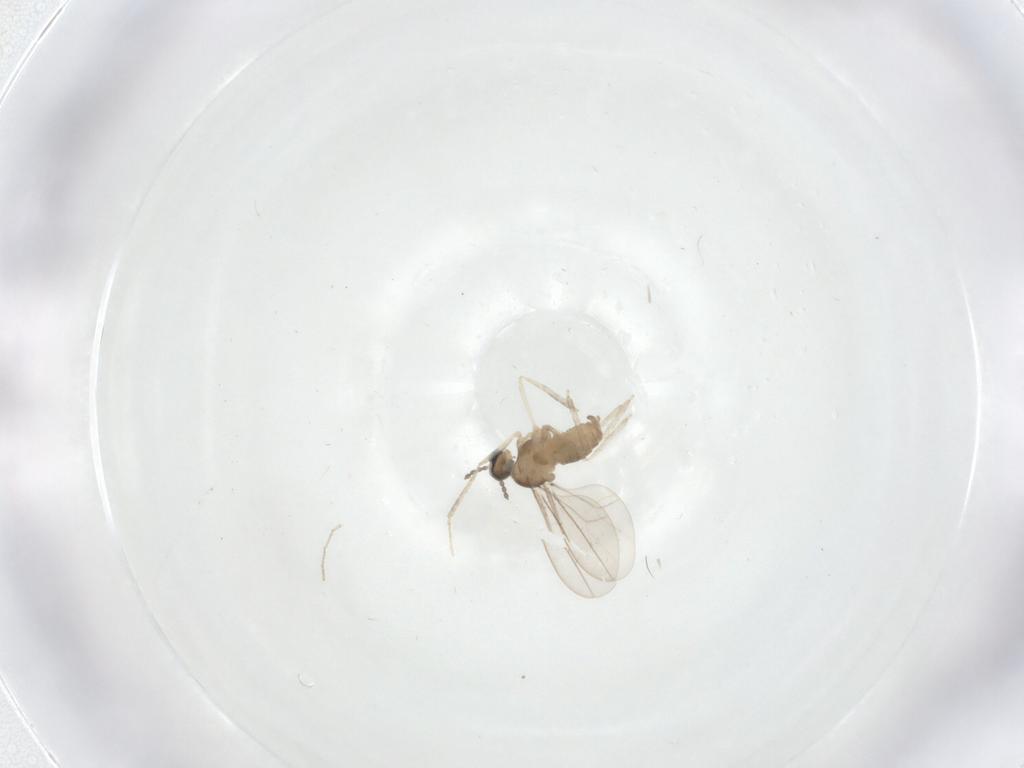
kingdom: Animalia
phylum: Arthropoda
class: Insecta
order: Diptera
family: Cecidomyiidae
